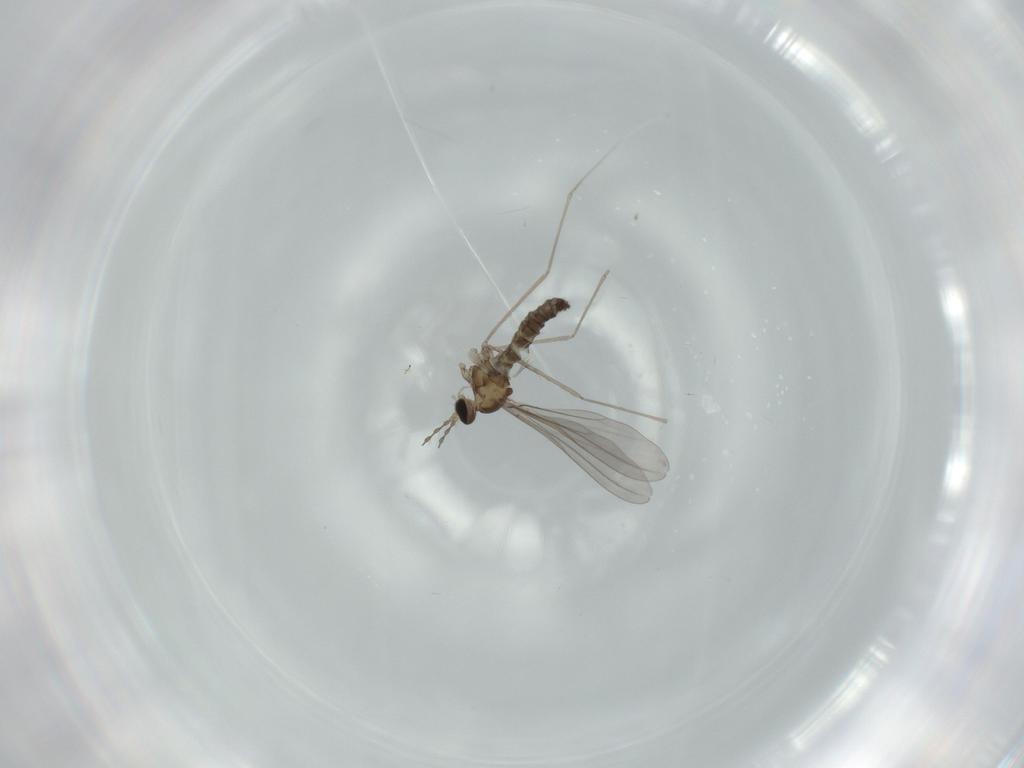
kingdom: Animalia
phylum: Arthropoda
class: Insecta
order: Diptera
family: Cecidomyiidae
